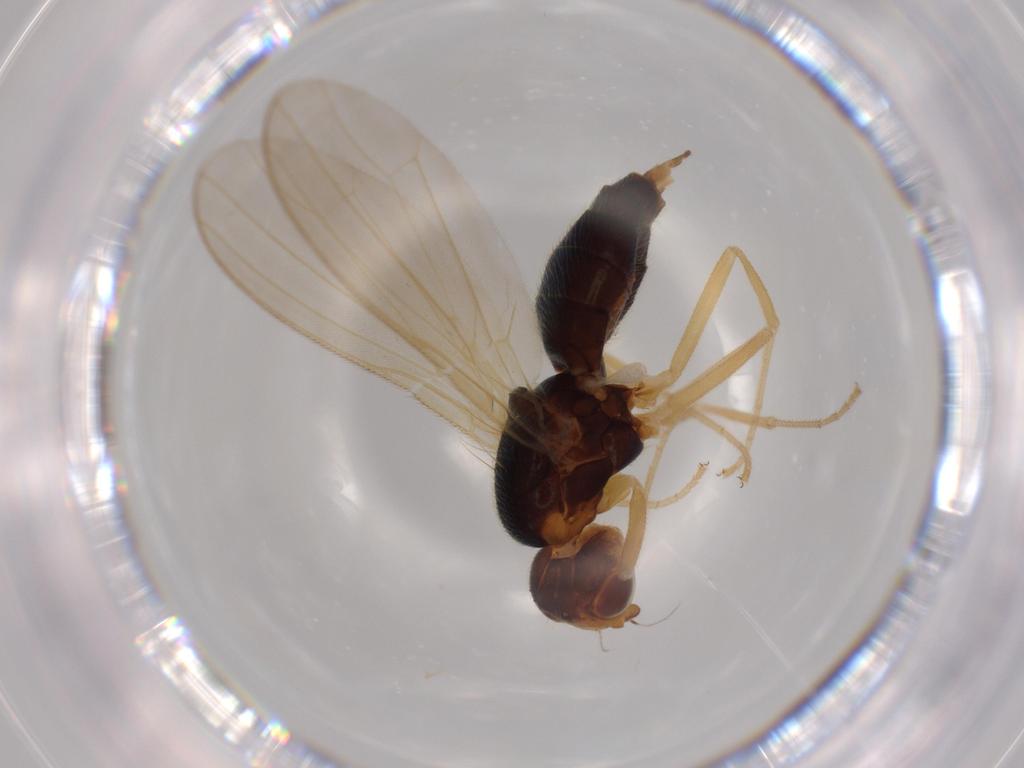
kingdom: Animalia
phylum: Arthropoda
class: Insecta
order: Diptera
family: Psilidae
